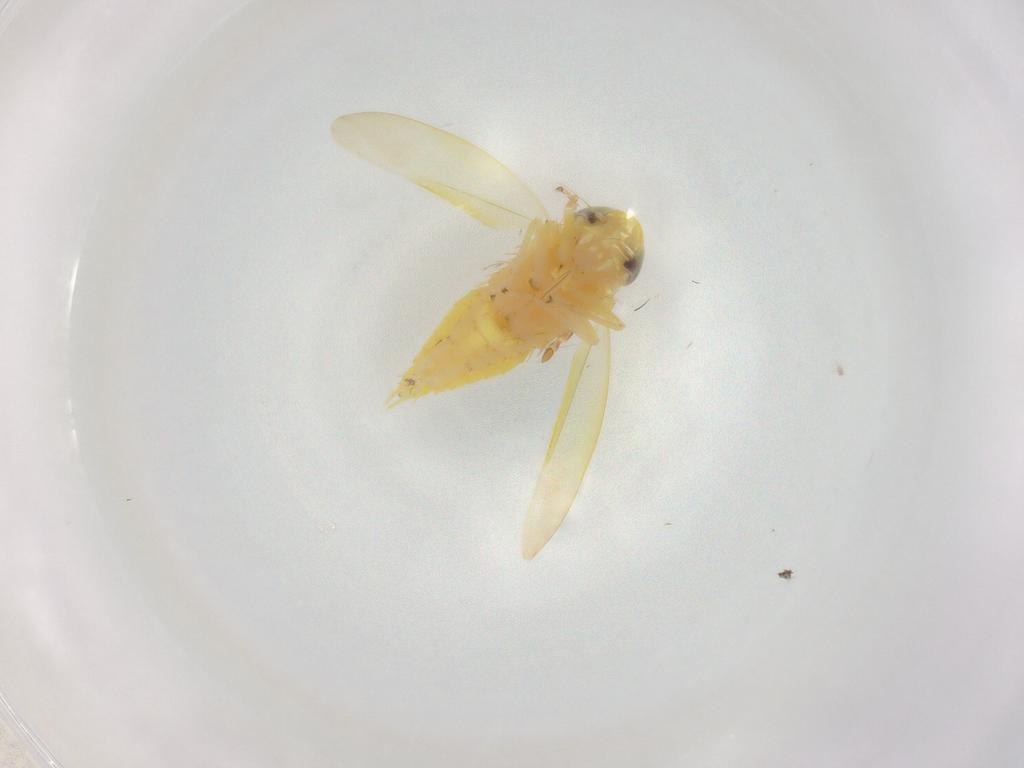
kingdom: Animalia
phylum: Arthropoda
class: Insecta
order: Hemiptera
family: Cicadellidae
